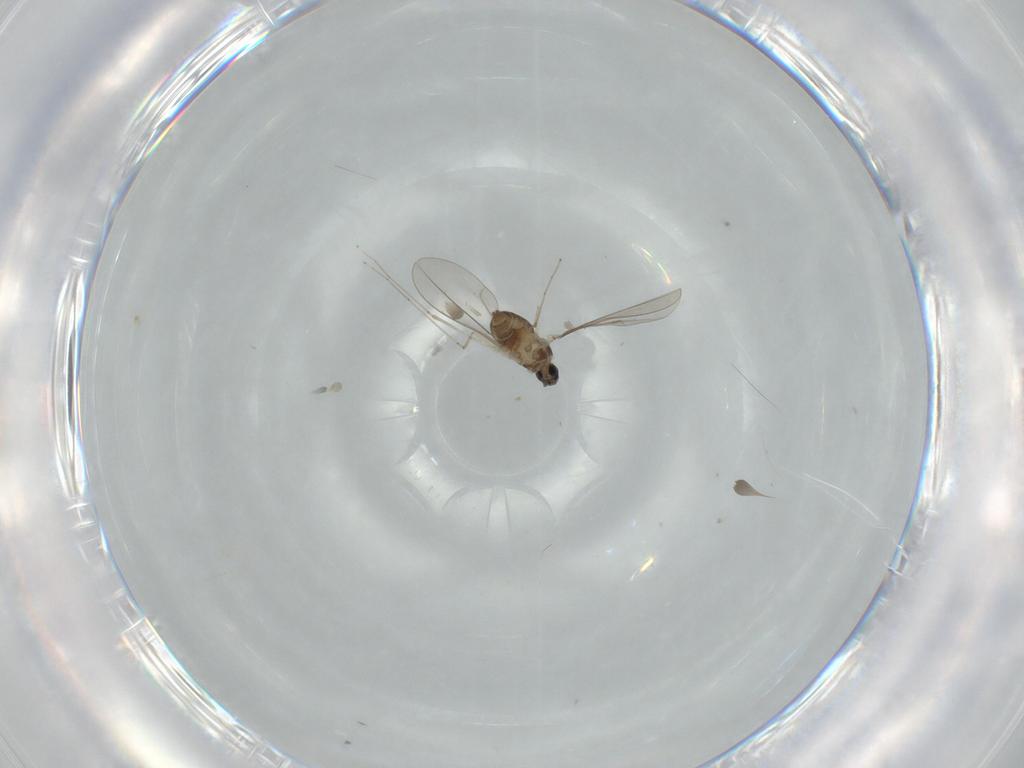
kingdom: Animalia
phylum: Arthropoda
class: Insecta
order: Diptera
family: Cecidomyiidae
